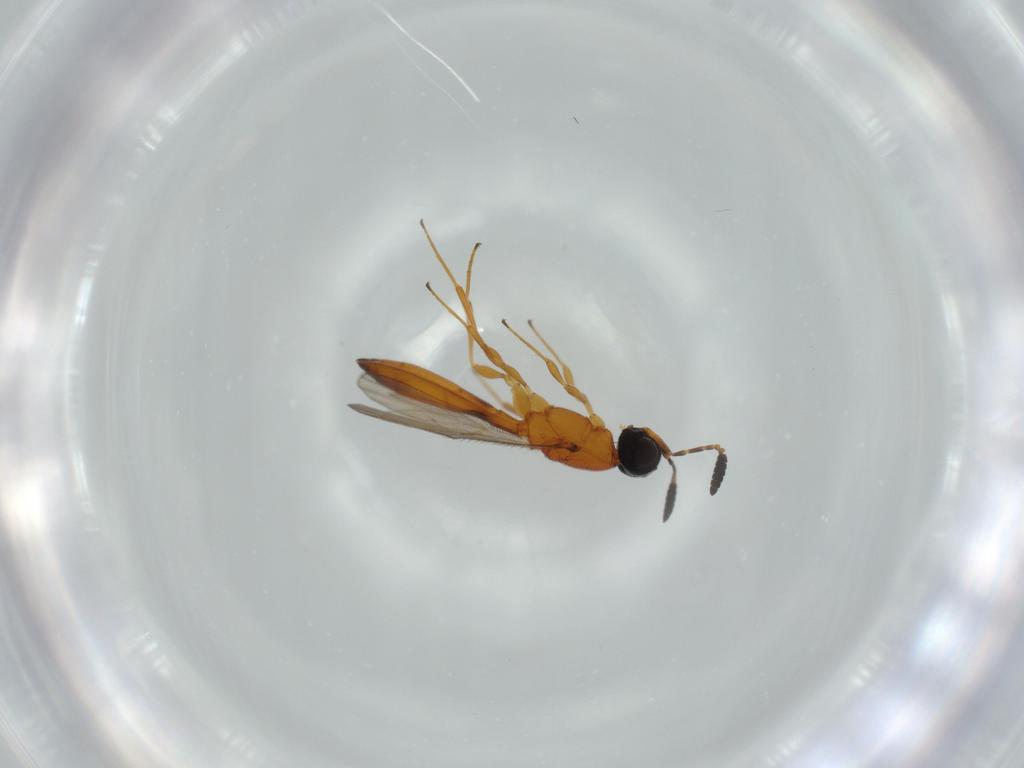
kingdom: Animalia
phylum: Arthropoda
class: Insecta
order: Hymenoptera
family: Scelionidae
